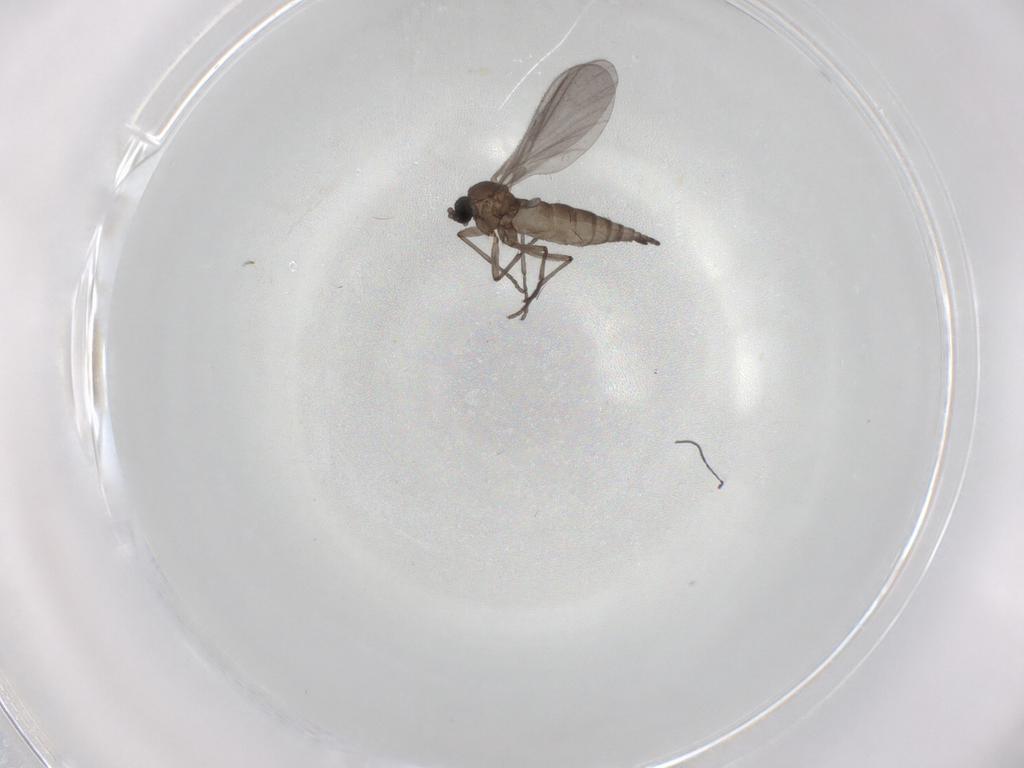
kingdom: Animalia
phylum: Arthropoda
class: Insecta
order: Diptera
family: Sciaridae
